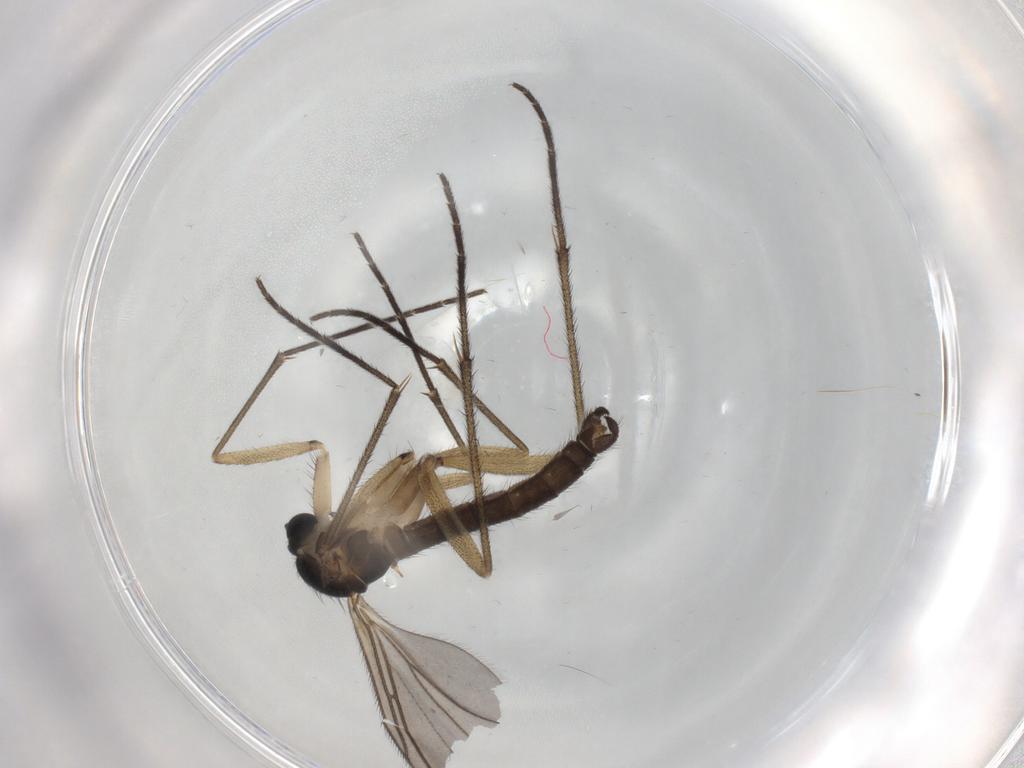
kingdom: Animalia
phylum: Arthropoda
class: Insecta
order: Diptera
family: Sciaridae
